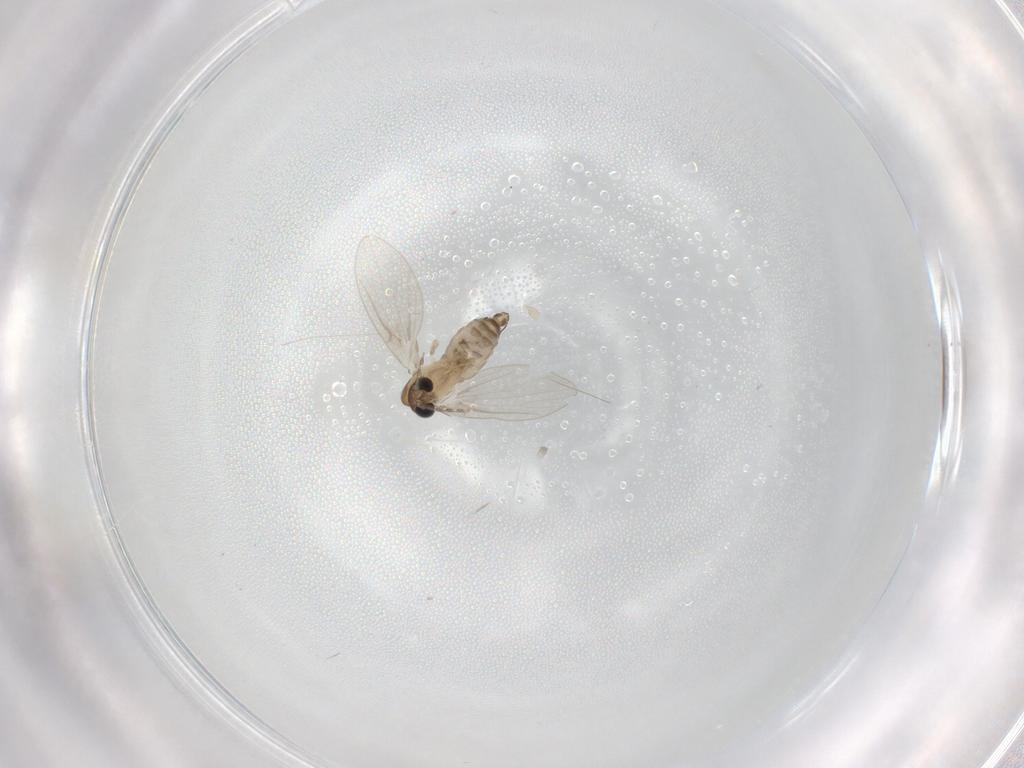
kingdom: Animalia
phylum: Arthropoda
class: Insecta
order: Diptera
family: Psychodidae
